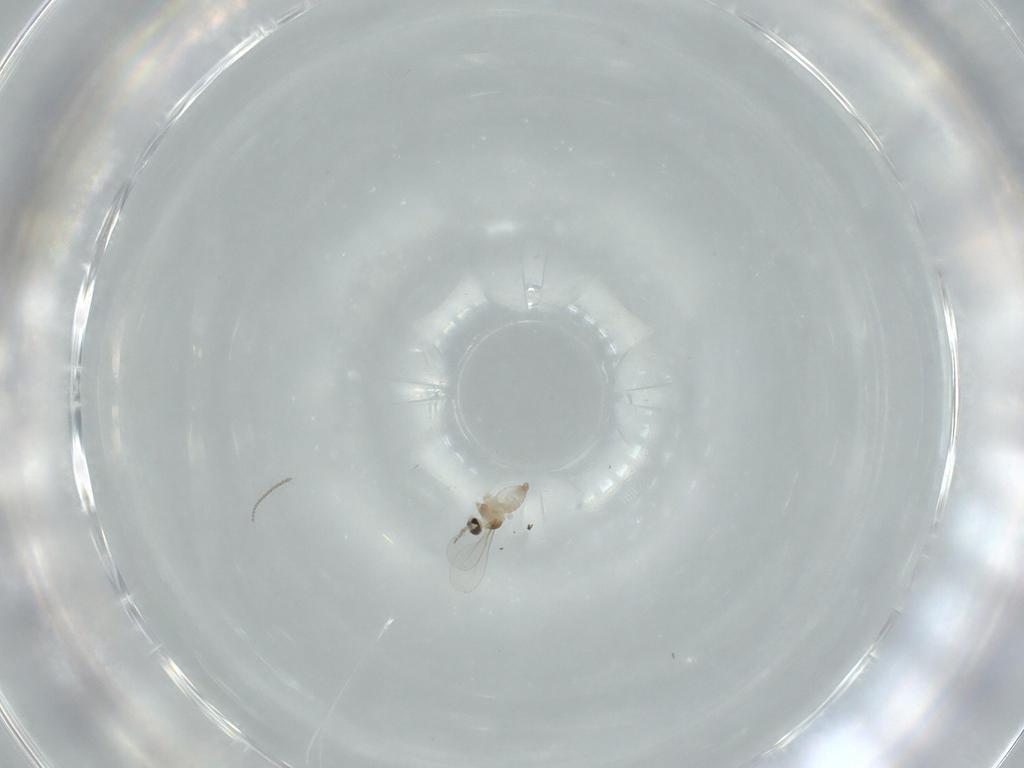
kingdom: Animalia
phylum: Arthropoda
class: Insecta
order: Diptera
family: Cecidomyiidae
